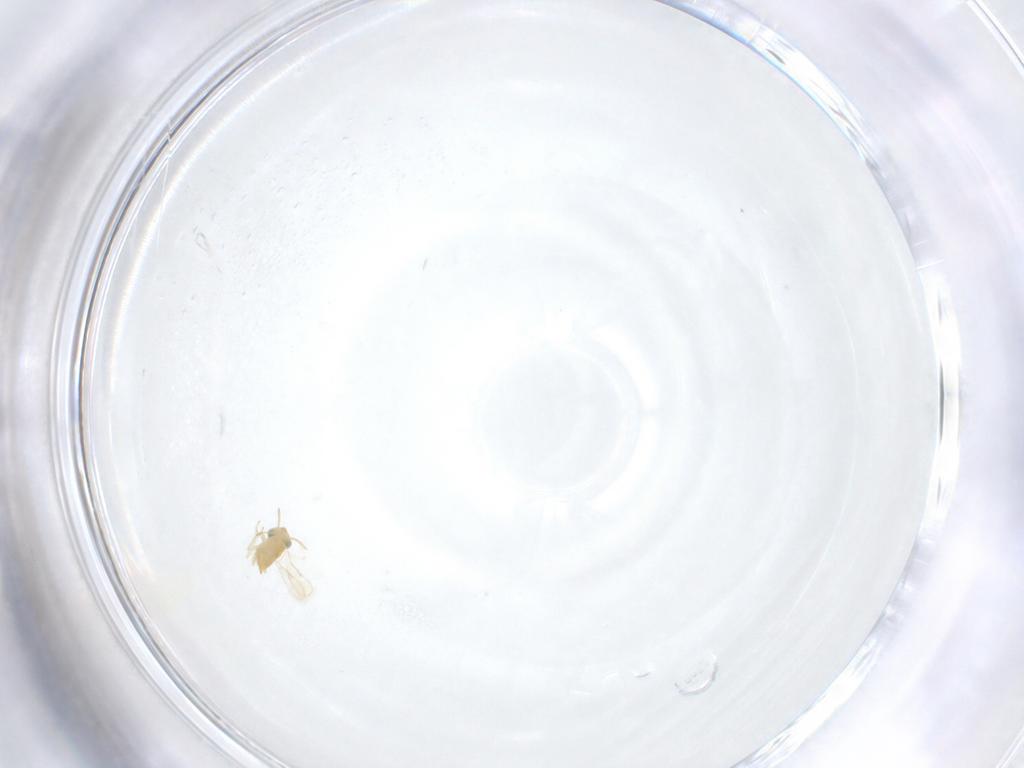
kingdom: Animalia
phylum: Arthropoda
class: Insecta
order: Hymenoptera
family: Aphelinidae
